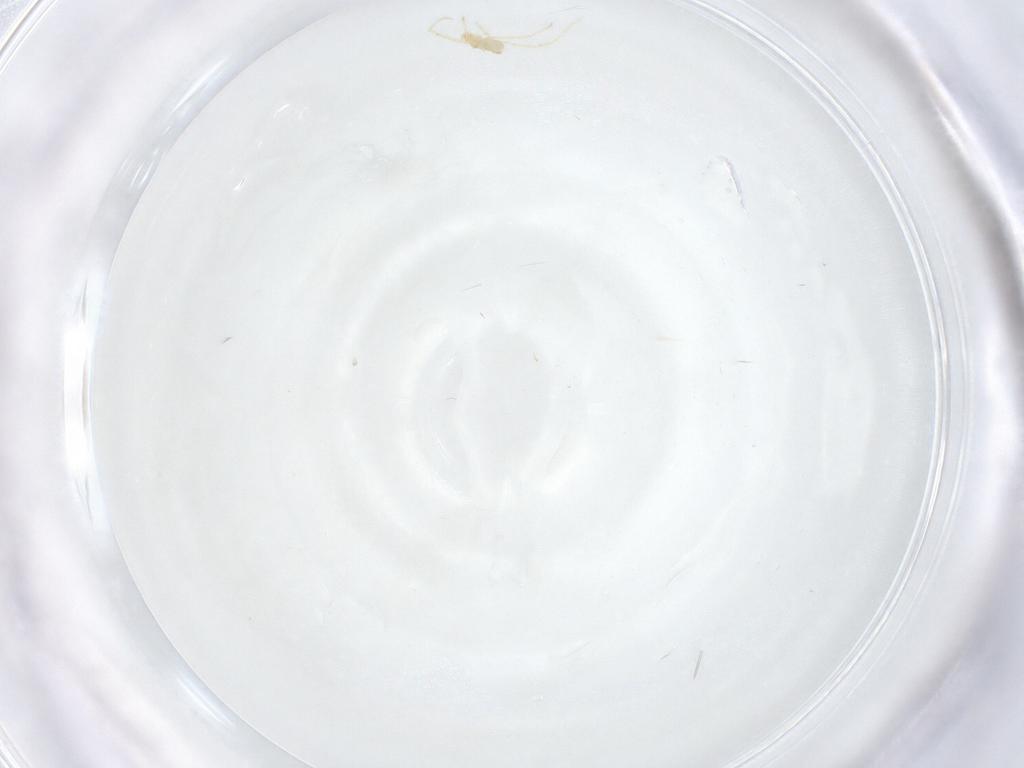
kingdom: Animalia
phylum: Arthropoda
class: Arachnida
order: Trombidiformes
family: Erythraeidae
